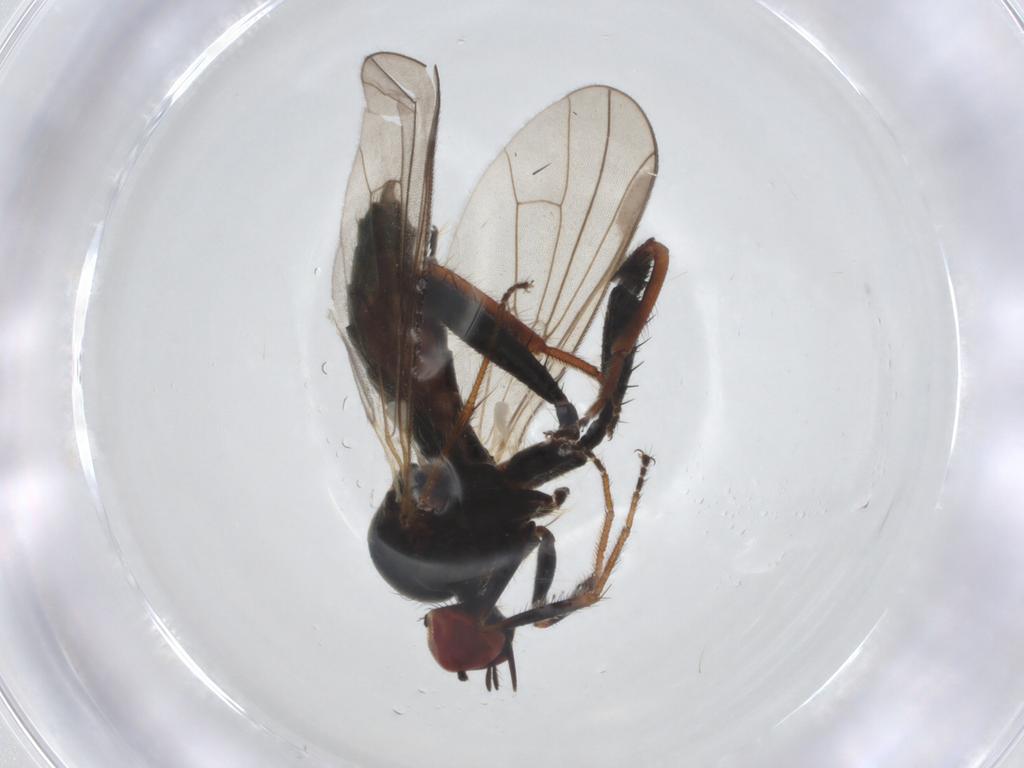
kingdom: Animalia
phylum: Arthropoda
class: Insecta
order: Diptera
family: Hybotidae
